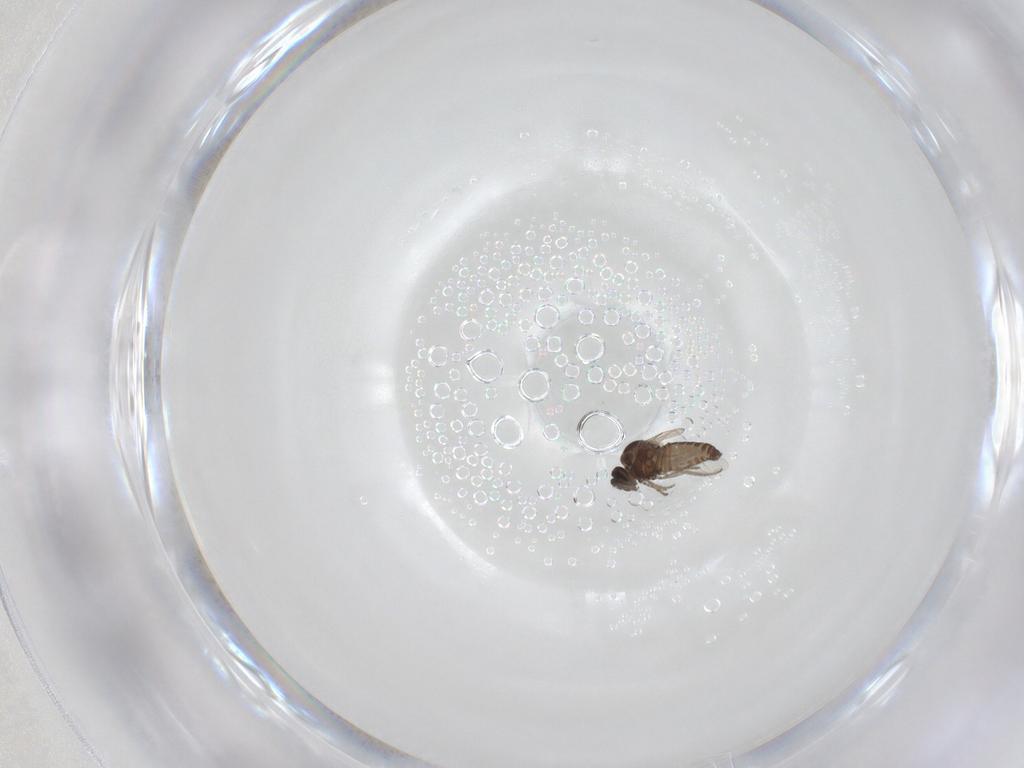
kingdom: Animalia
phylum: Arthropoda
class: Insecta
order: Diptera
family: Ceratopogonidae
